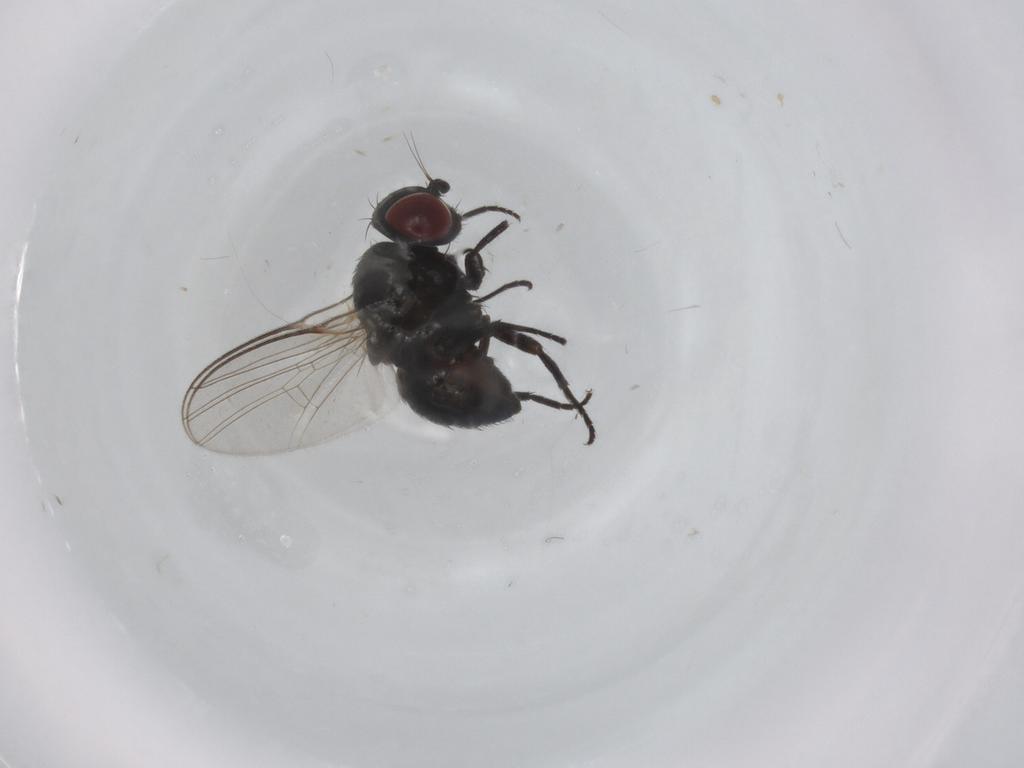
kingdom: Animalia
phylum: Arthropoda
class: Insecta
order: Diptera
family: Agromyzidae
